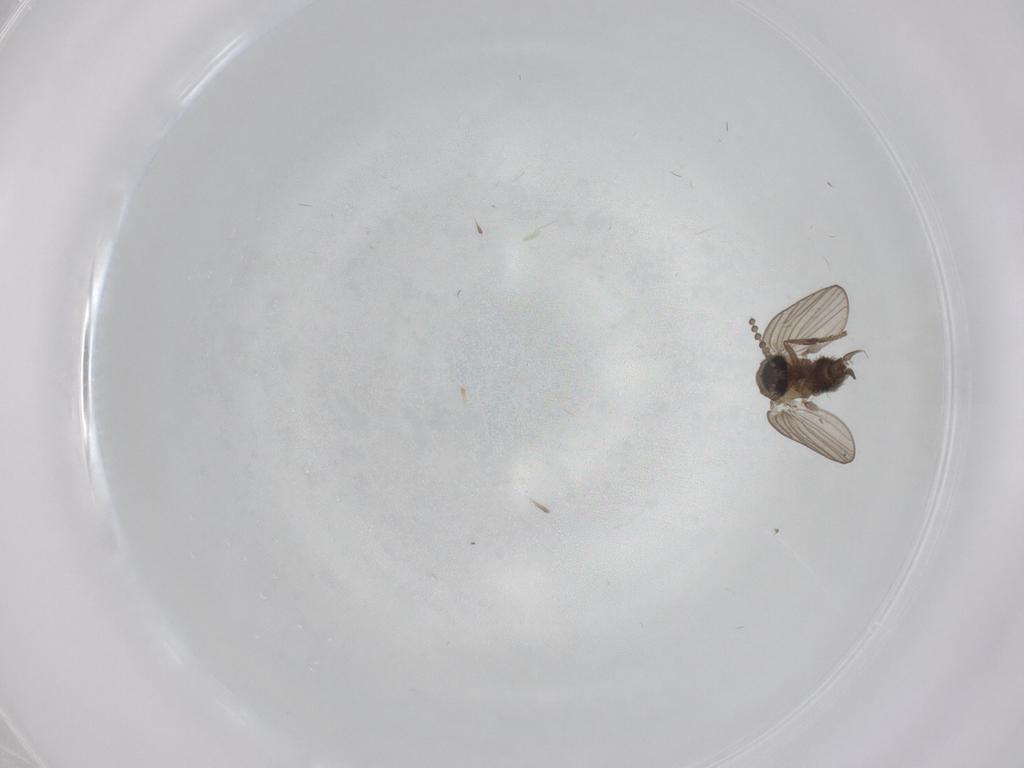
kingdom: Animalia
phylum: Arthropoda
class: Insecta
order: Diptera
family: Psychodidae
